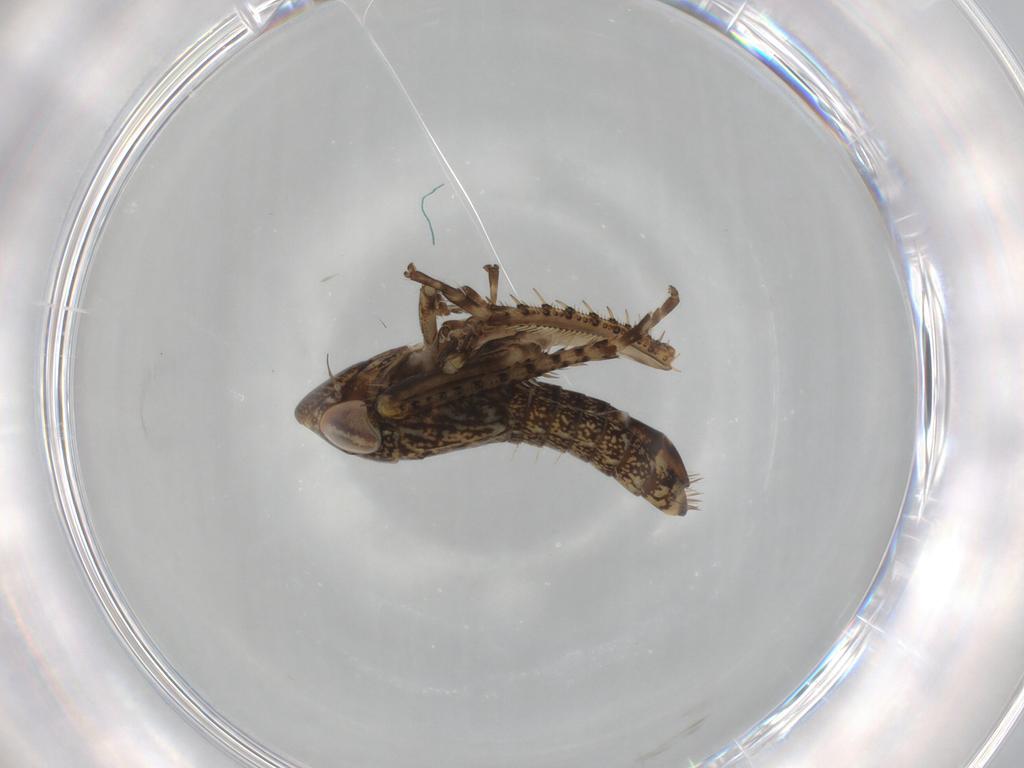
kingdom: Animalia
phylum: Arthropoda
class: Insecta
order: Hemiptera
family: Cicadellidae
